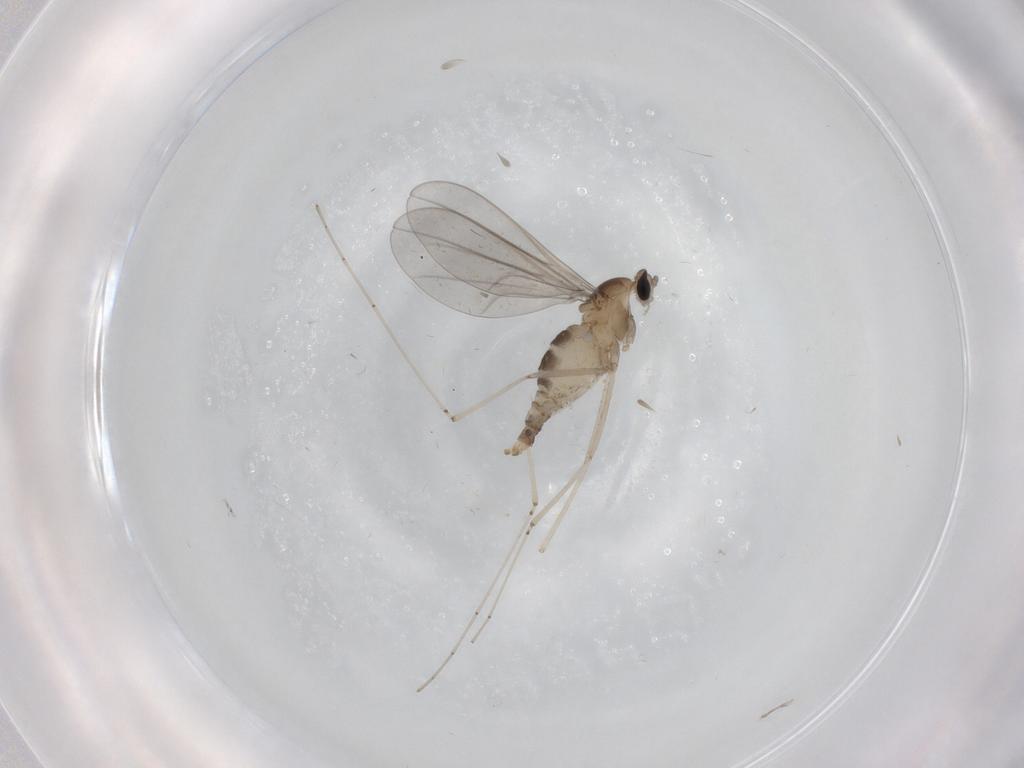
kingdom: Animalia
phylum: Arthropoda
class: Insecta
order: Diptera
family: Cecidomyiidae
